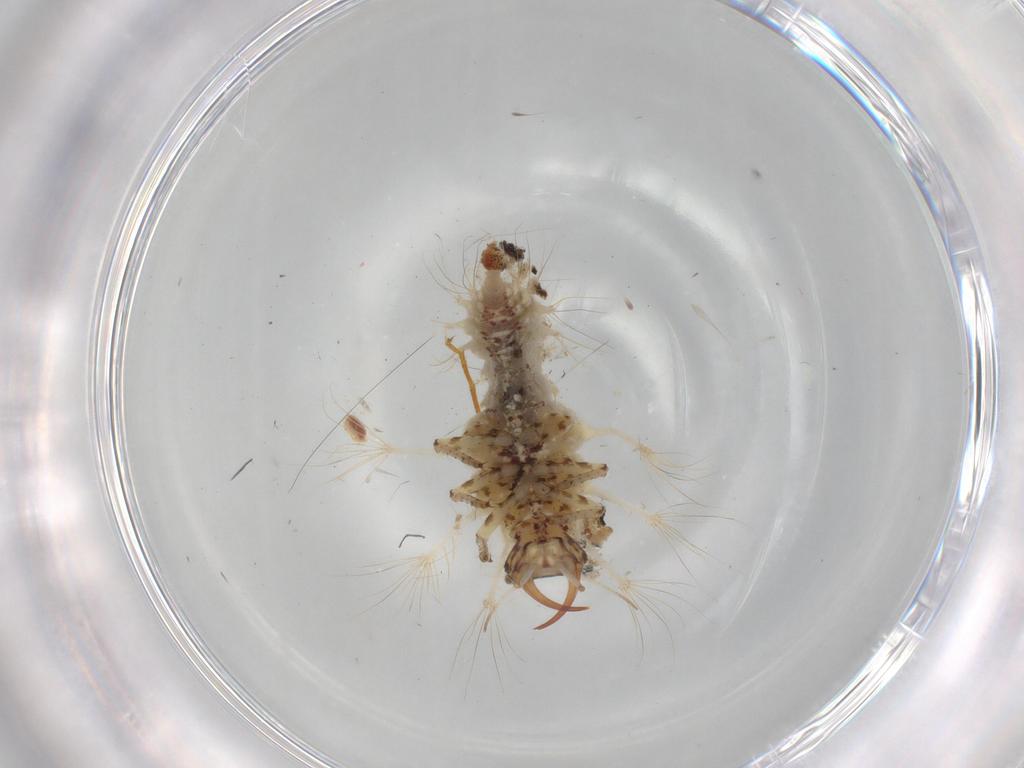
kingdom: Animalia
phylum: Arthropoda
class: Insecta
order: Neuroptera
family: Chrysopidae
